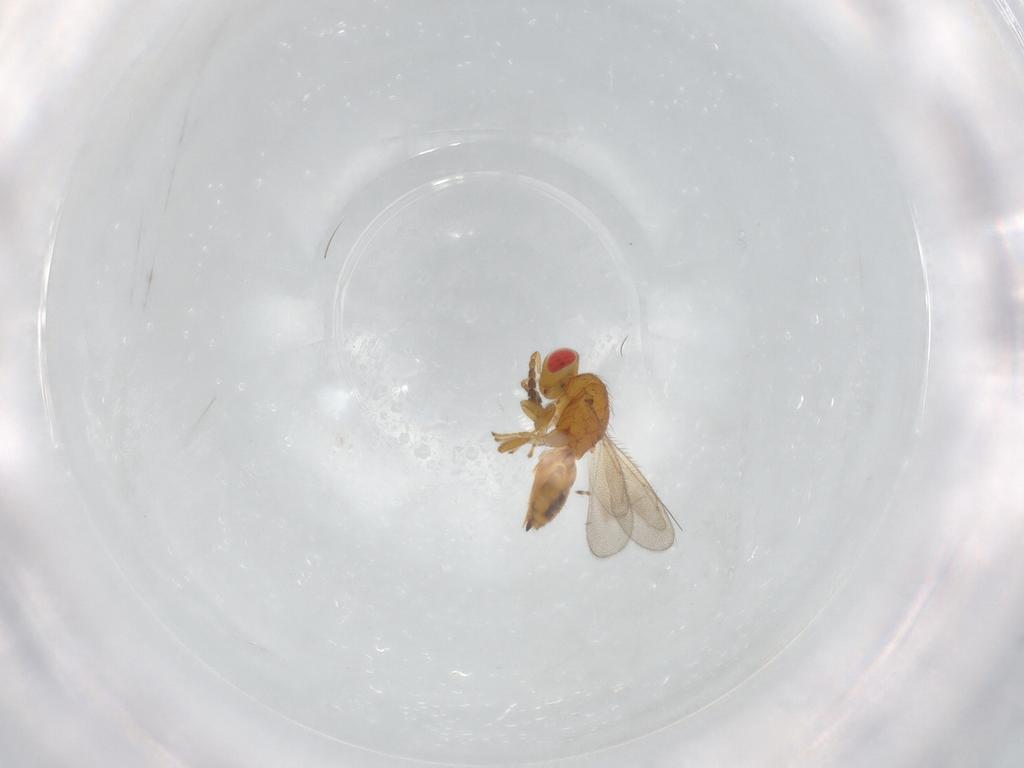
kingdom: Animalia
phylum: Arthropoda
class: Insecta
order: Hymenoptera
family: Eulophidae
